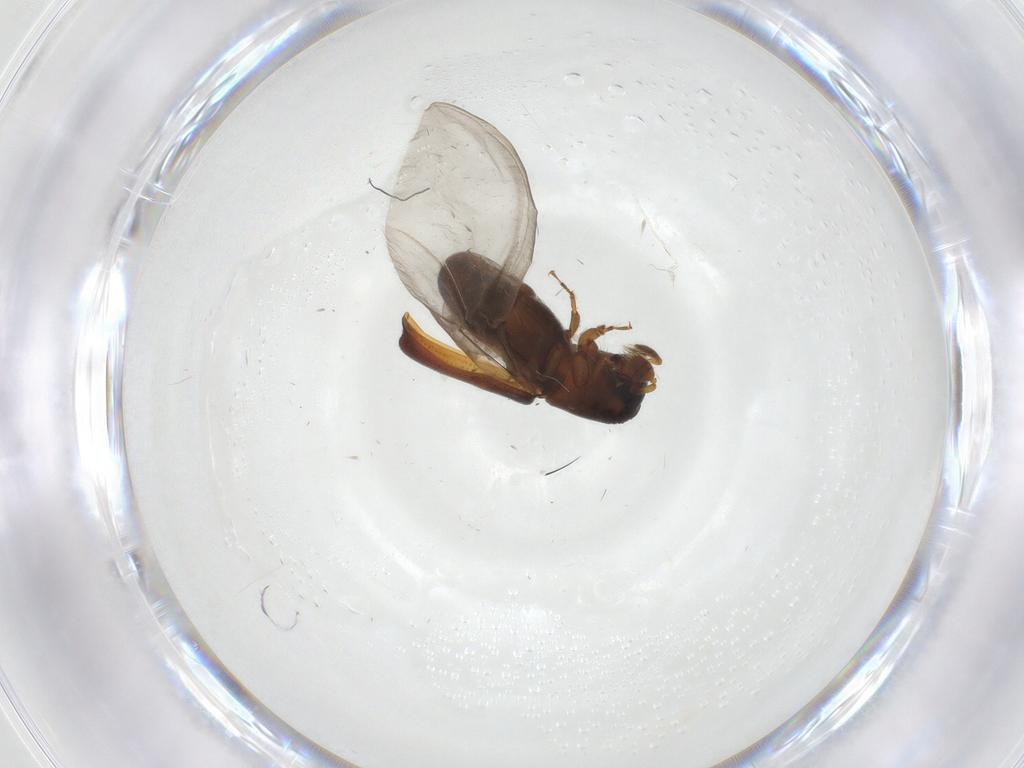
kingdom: Animalia
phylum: Arthropoda
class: Insecta
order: Coleoptera
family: Curculionidae
